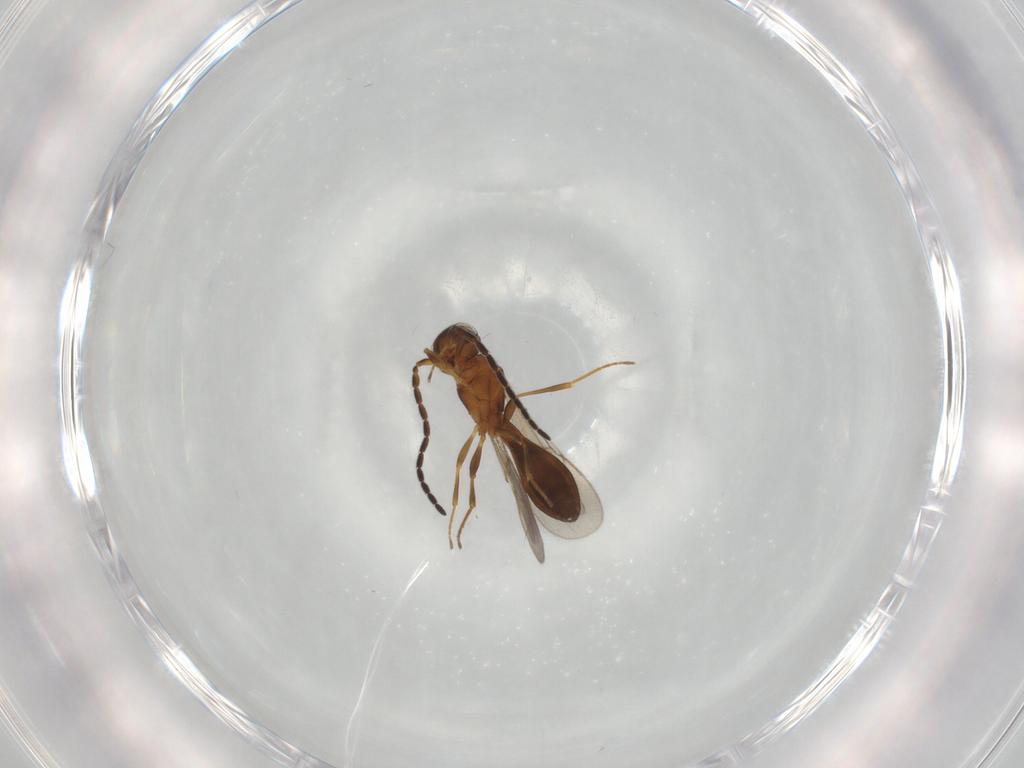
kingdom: Animalia
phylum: Arthropoda
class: Insecta
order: Hymenoptera
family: Scelionidae
